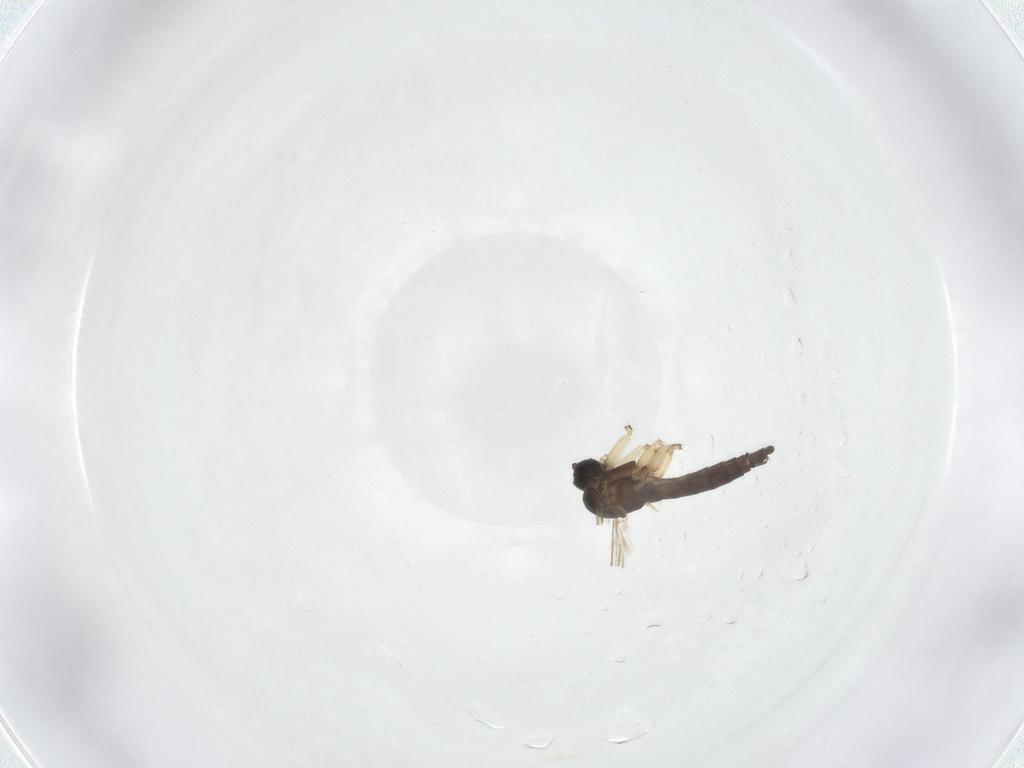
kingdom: Animalia
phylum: Arthropoda
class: Insecta
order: Diptera
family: Sciaridae
